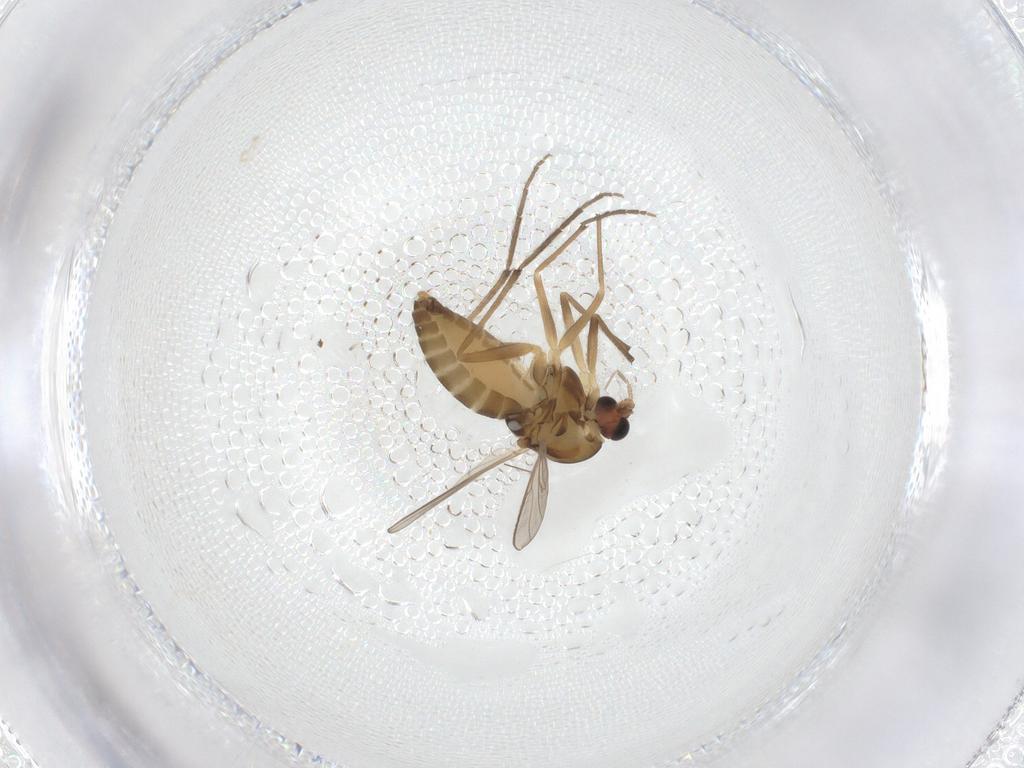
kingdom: Animalia
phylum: Arthropoda
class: Insecta
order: Diptera
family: Chironomidae
